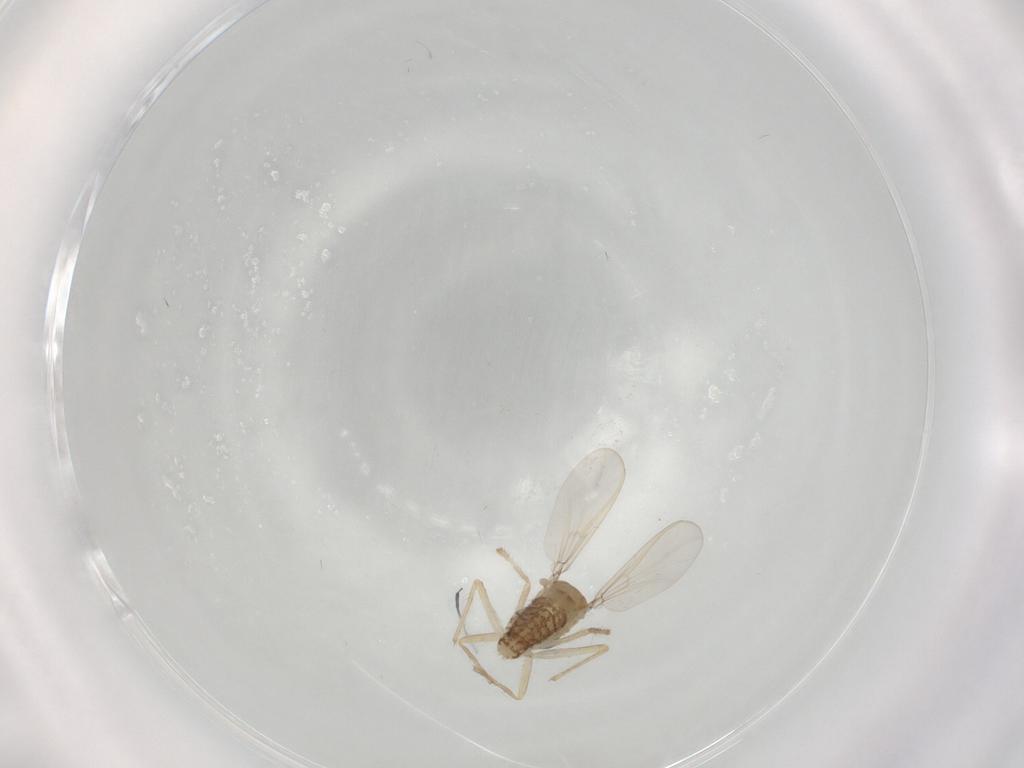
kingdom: Animalia
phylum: Arthropoda
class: Insecta
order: Diptera
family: Chironomidae
